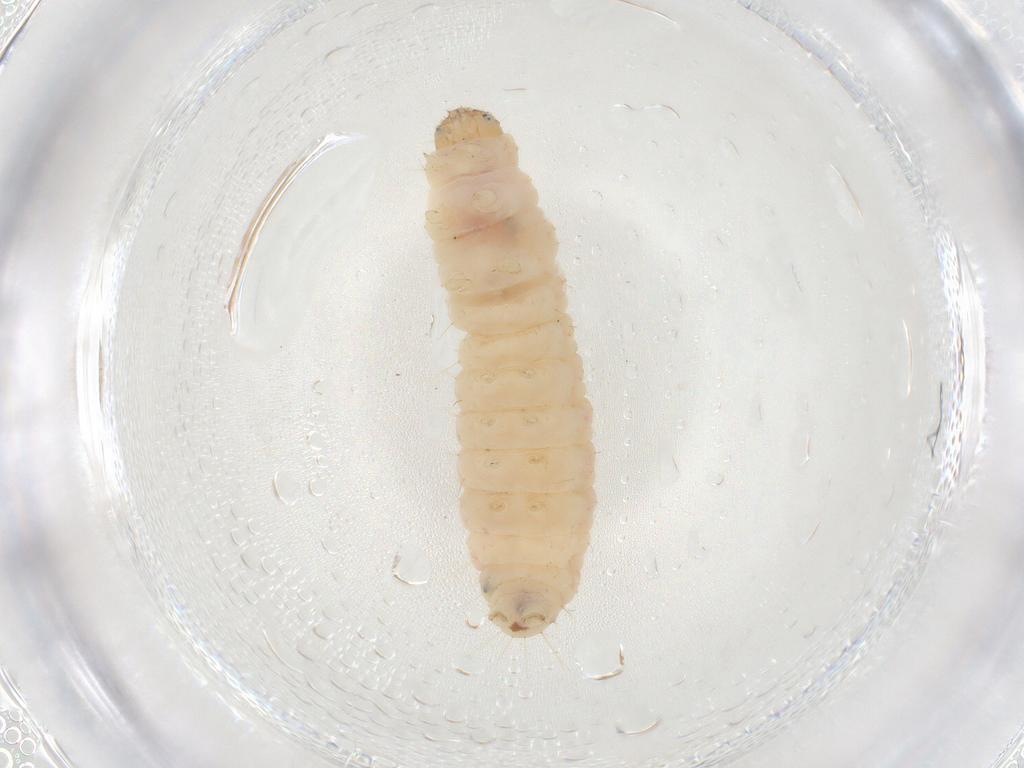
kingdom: Animalia
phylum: Arthropoda
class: Insecta
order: Lepidoptera
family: Pyralidae
